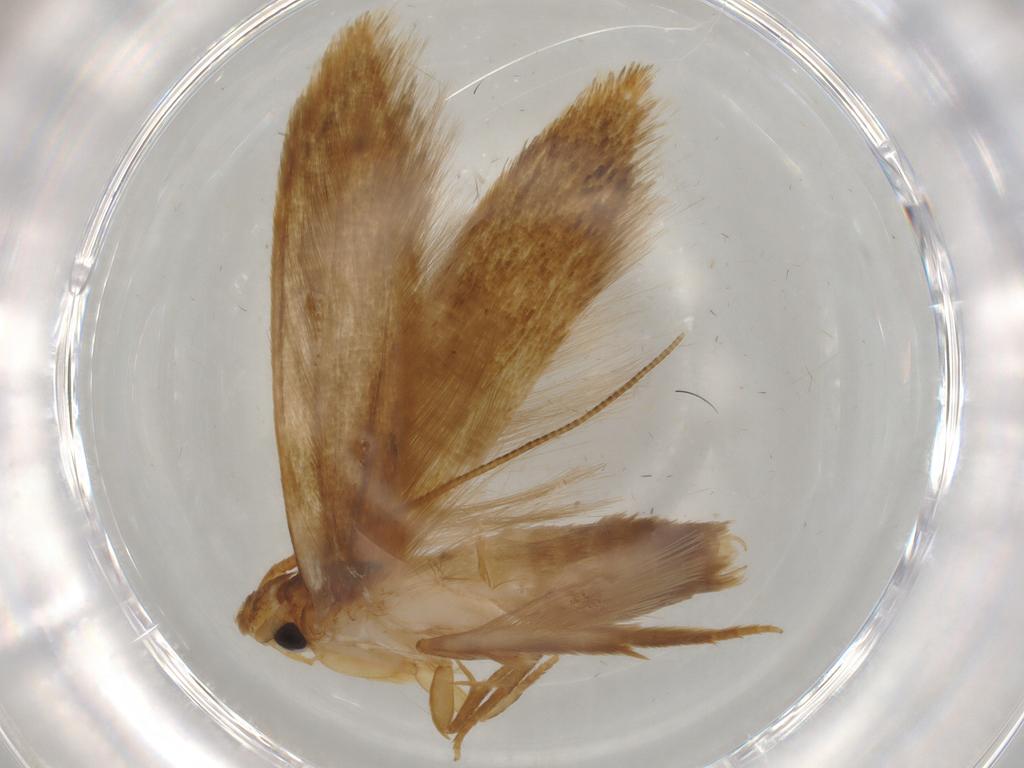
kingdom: Animalia
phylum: Arthropoda
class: Insecta
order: Lepidoptera
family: Tineidae
